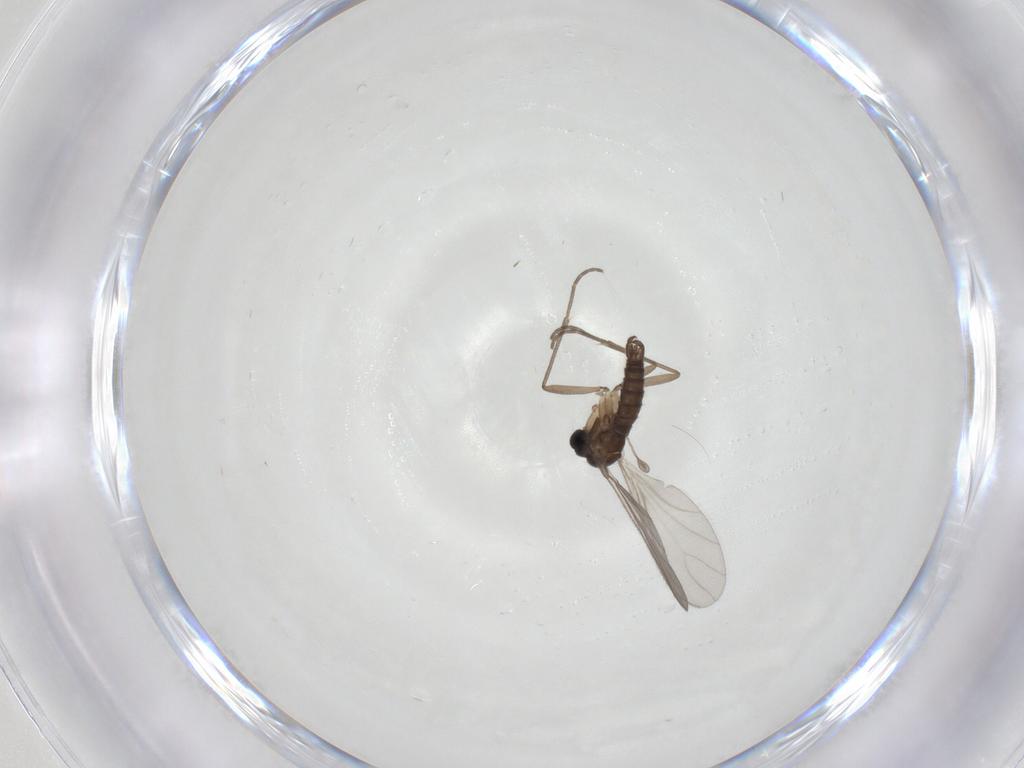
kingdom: Animalia
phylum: Arthropoda
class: Insecta
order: Diptera
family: Sciaridae
